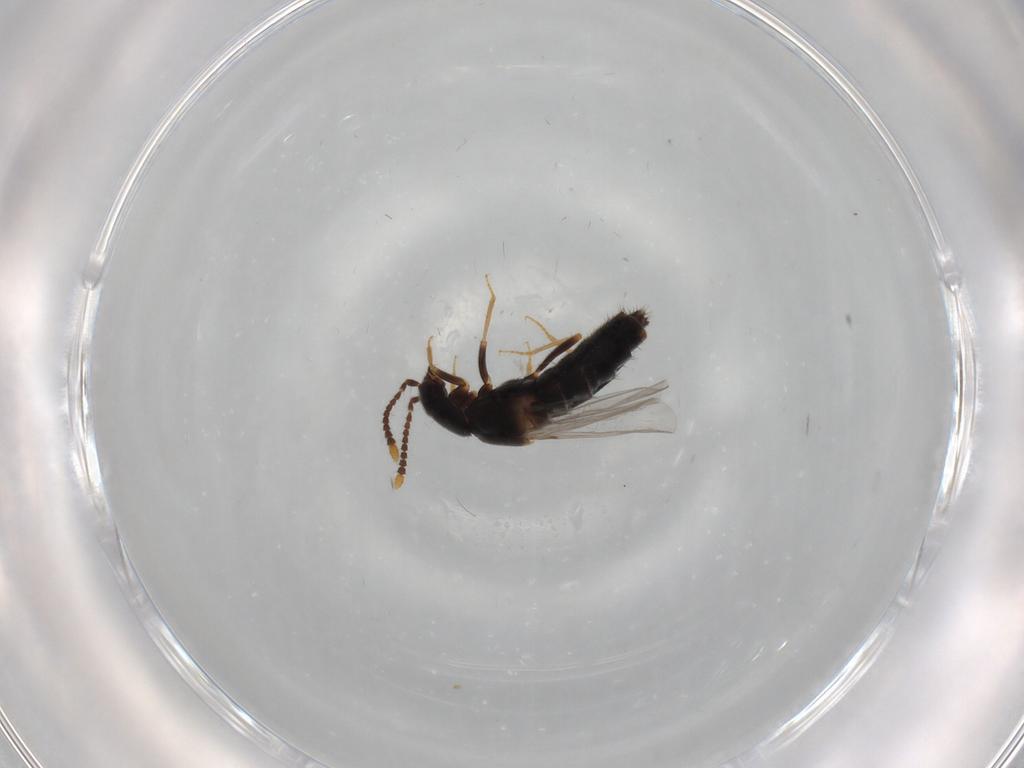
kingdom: Animalia
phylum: Arthropoda
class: Insecta
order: Coleoptera
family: Staphylinidae
